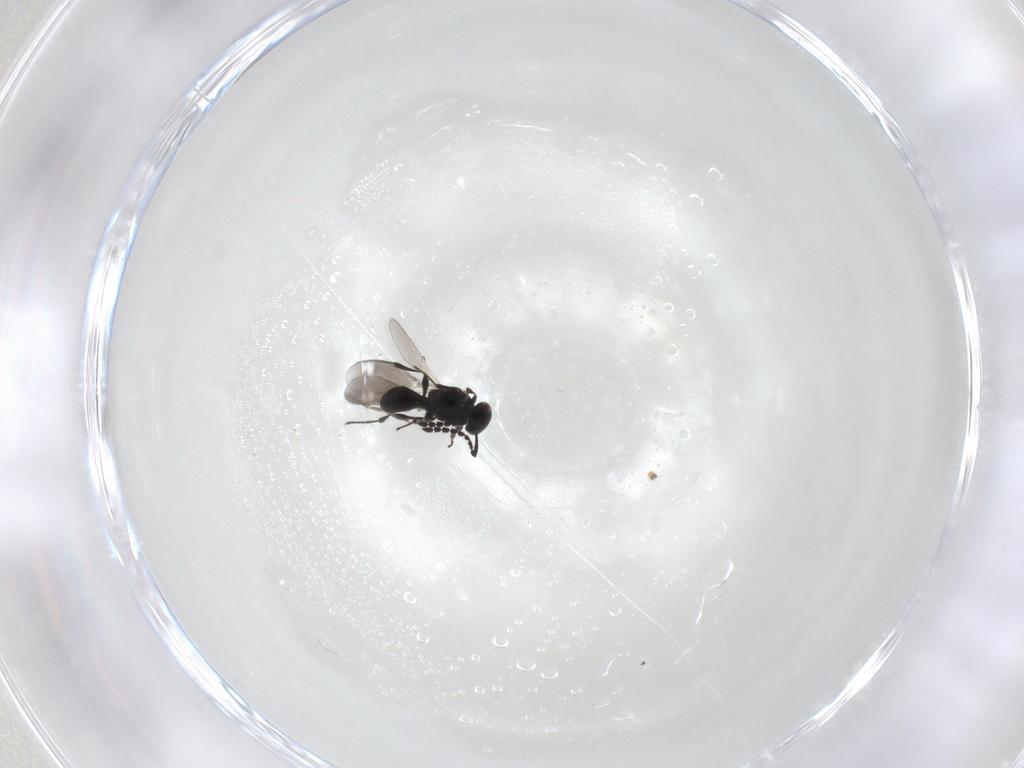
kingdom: Animalia
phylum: Arthropoda
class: Insecta
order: Hymenoptera
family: Platygastridae
